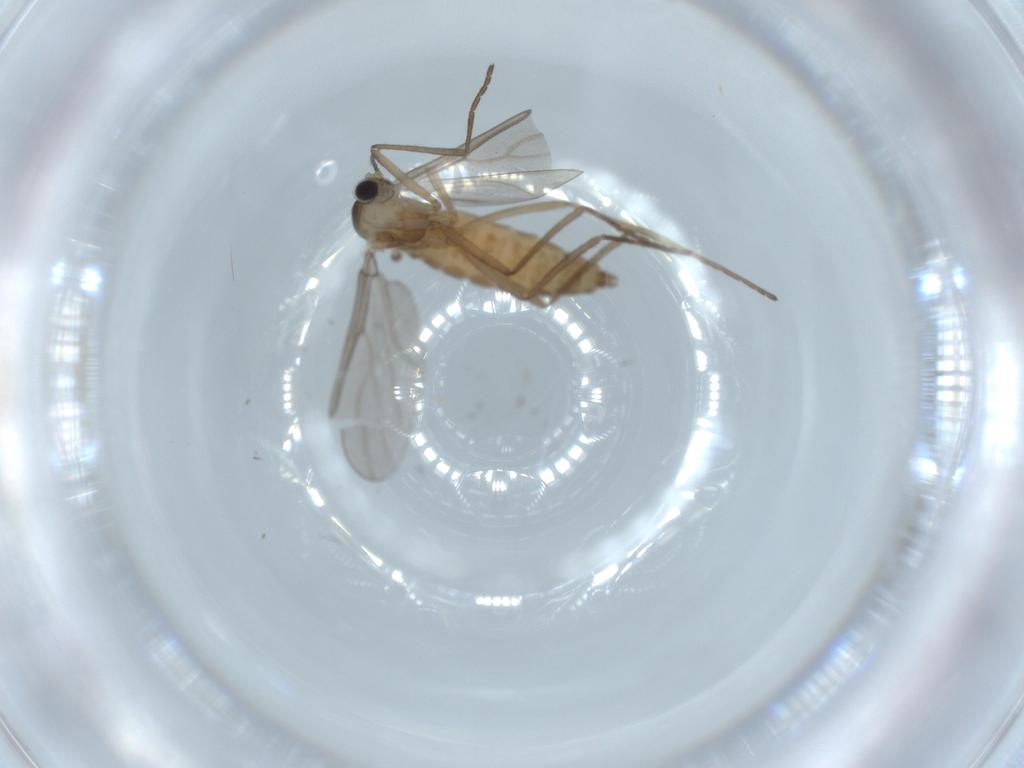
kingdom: Animalia
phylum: Arthropoda
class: Insecta
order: Diptera
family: Cecidomyiidae
